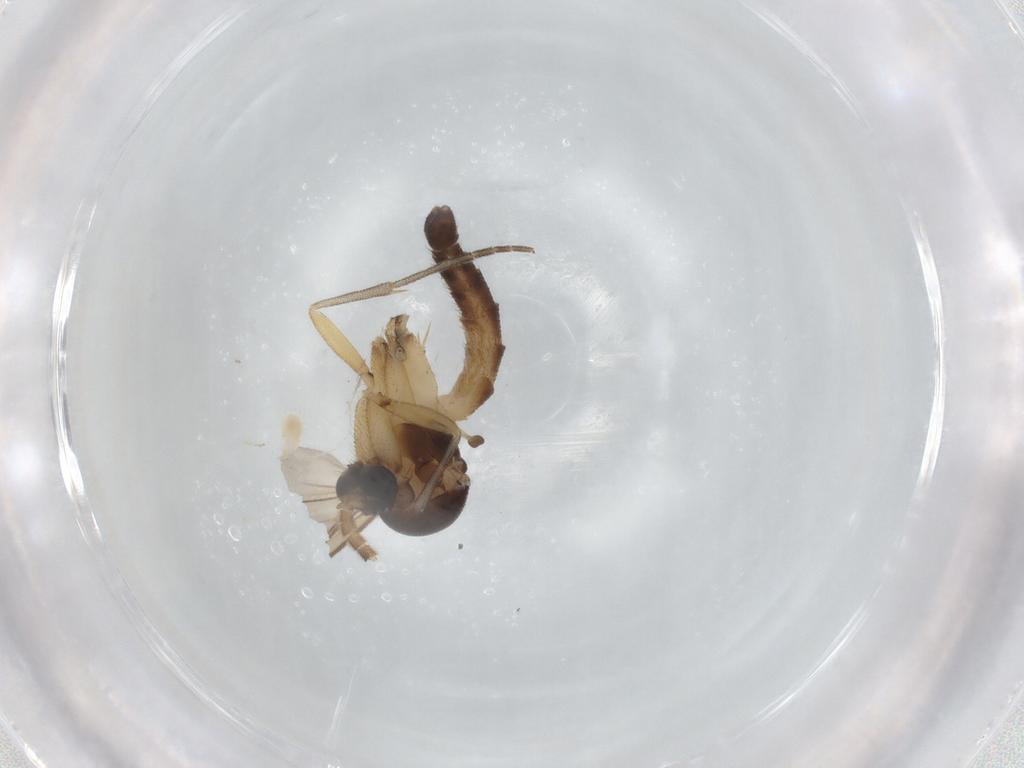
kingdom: Animalia
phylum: Arthropoda
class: Insecta
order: Diptera
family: Mycetophilidae
